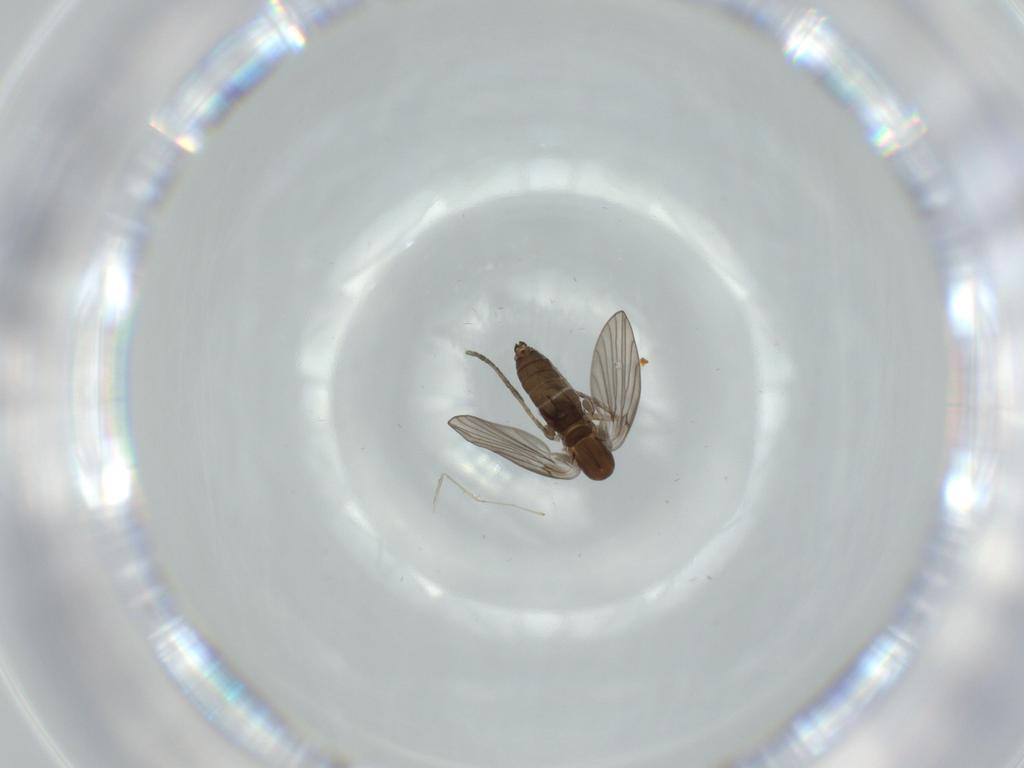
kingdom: Animalia
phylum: Arthropoda
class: Insecta
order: Diptera
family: Psychodidae
